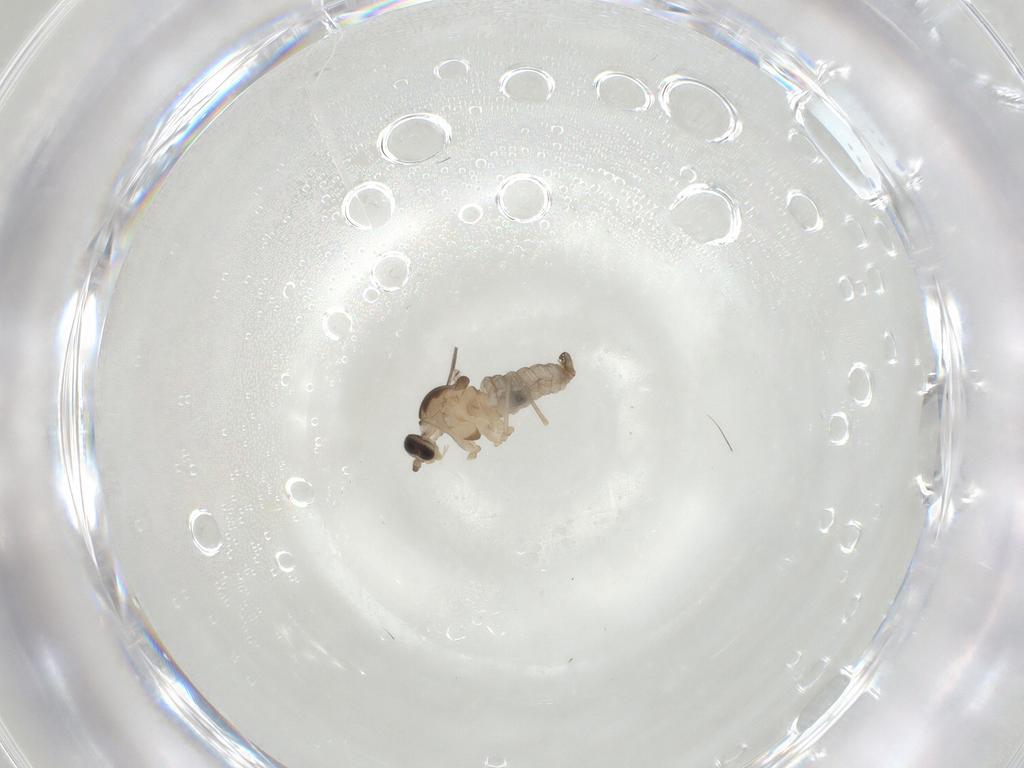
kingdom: Animalia
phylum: Arthropoda
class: Insecta
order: Diptera
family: Cecidomyiidae
